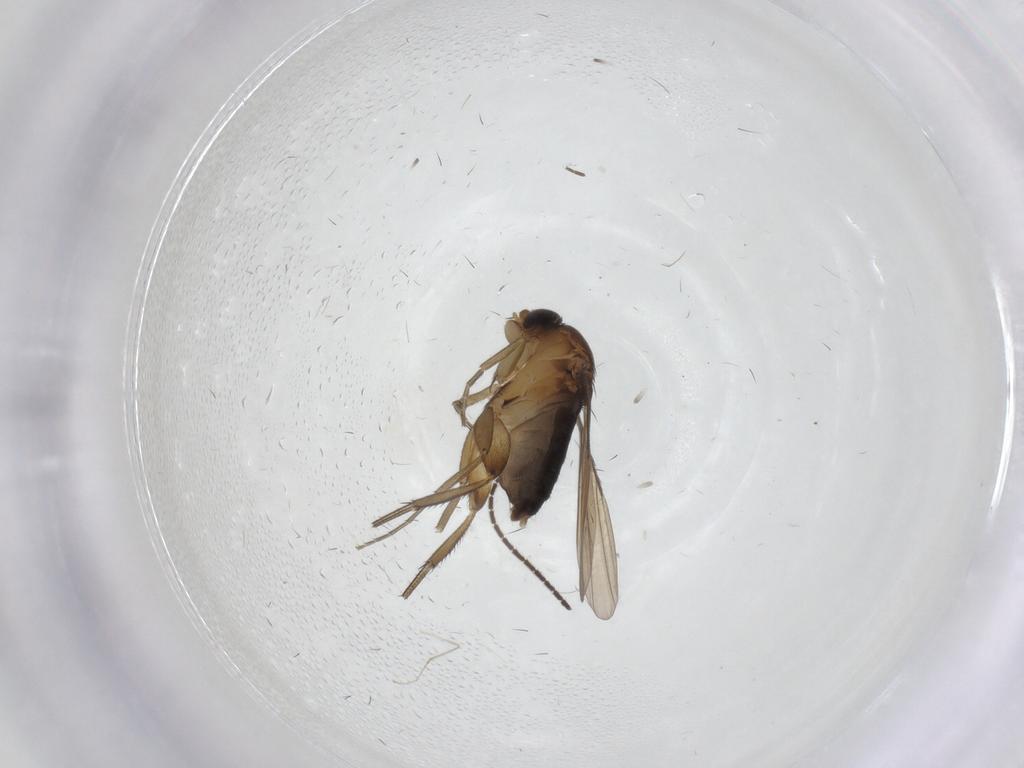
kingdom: Animalia
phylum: Arthropoda
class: Insecta
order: Diptera
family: Phoridae
